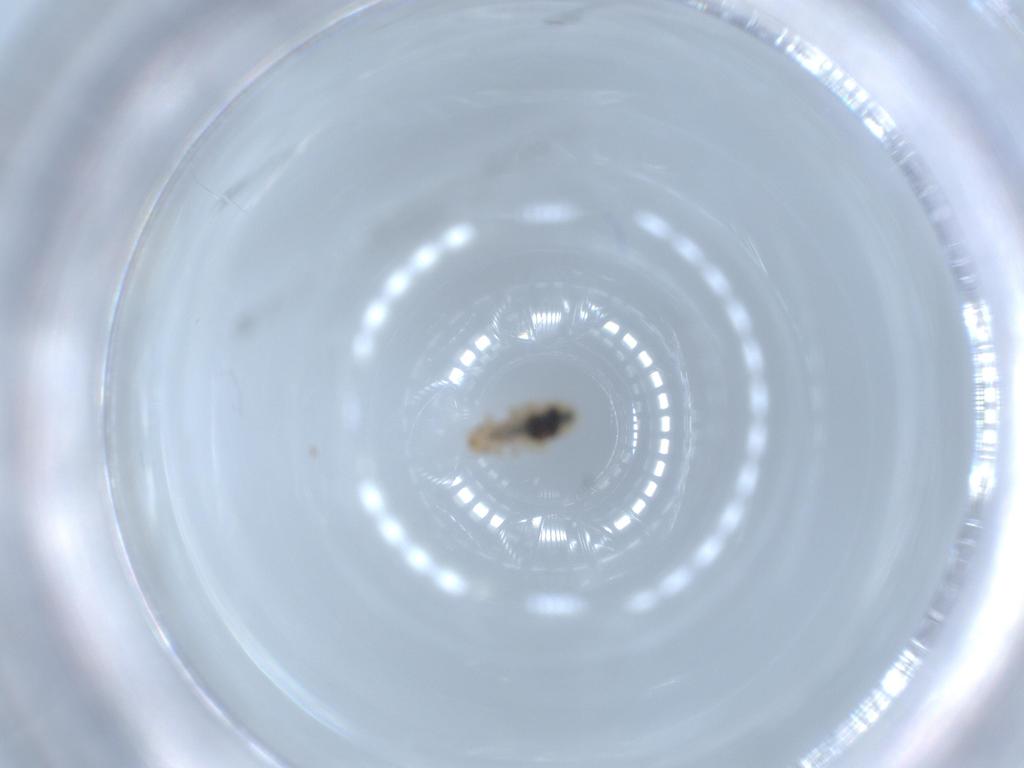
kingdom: Animalia
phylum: Arthropoda
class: Insecta
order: Psocodea
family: Liposcelididae
